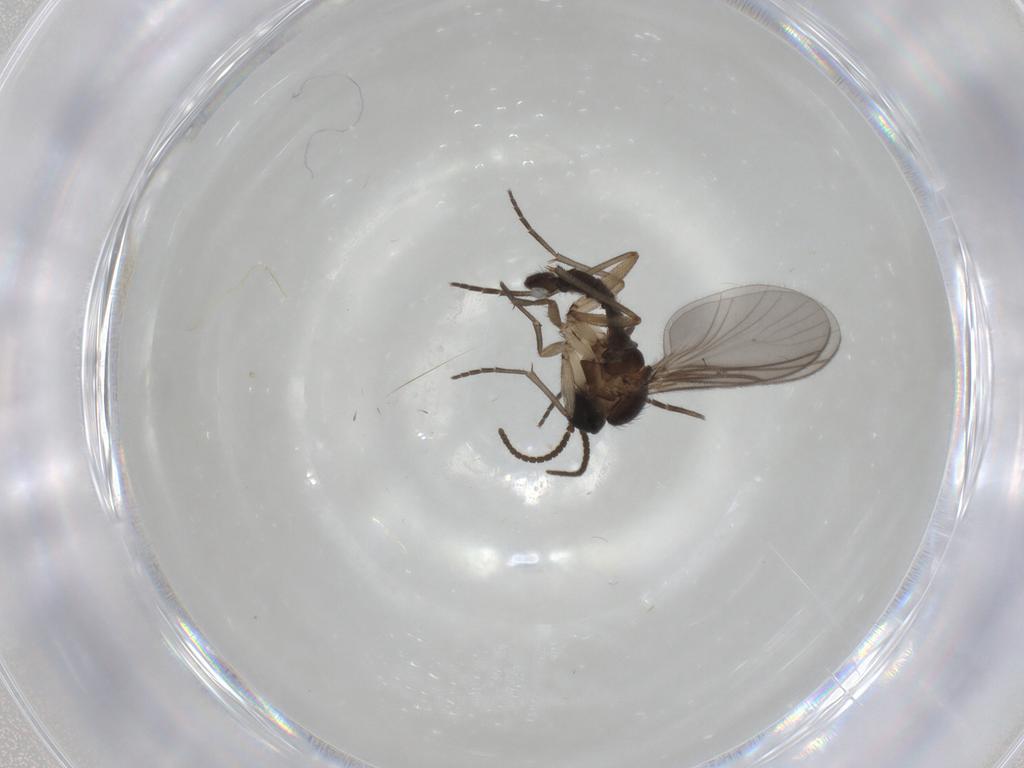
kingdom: Animalia
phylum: Arthropoda
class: Insecta
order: Diptera
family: Sciaridae
